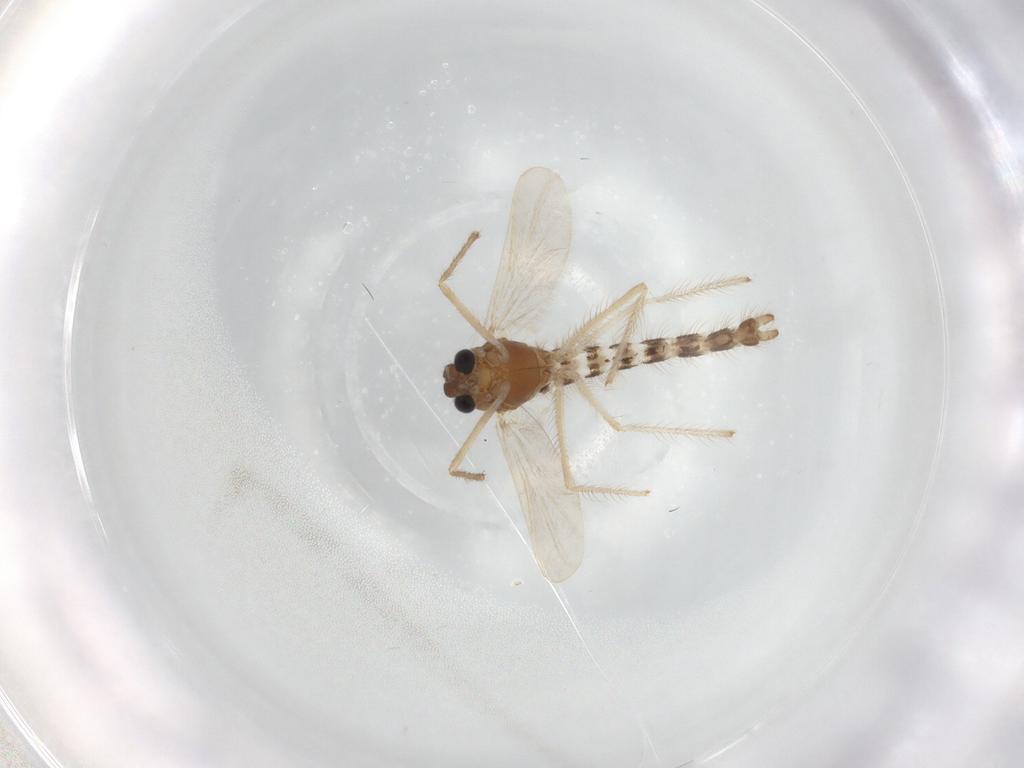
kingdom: Animalia
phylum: Arthropoda
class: Insecta
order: Diptera
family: Chironomidae
